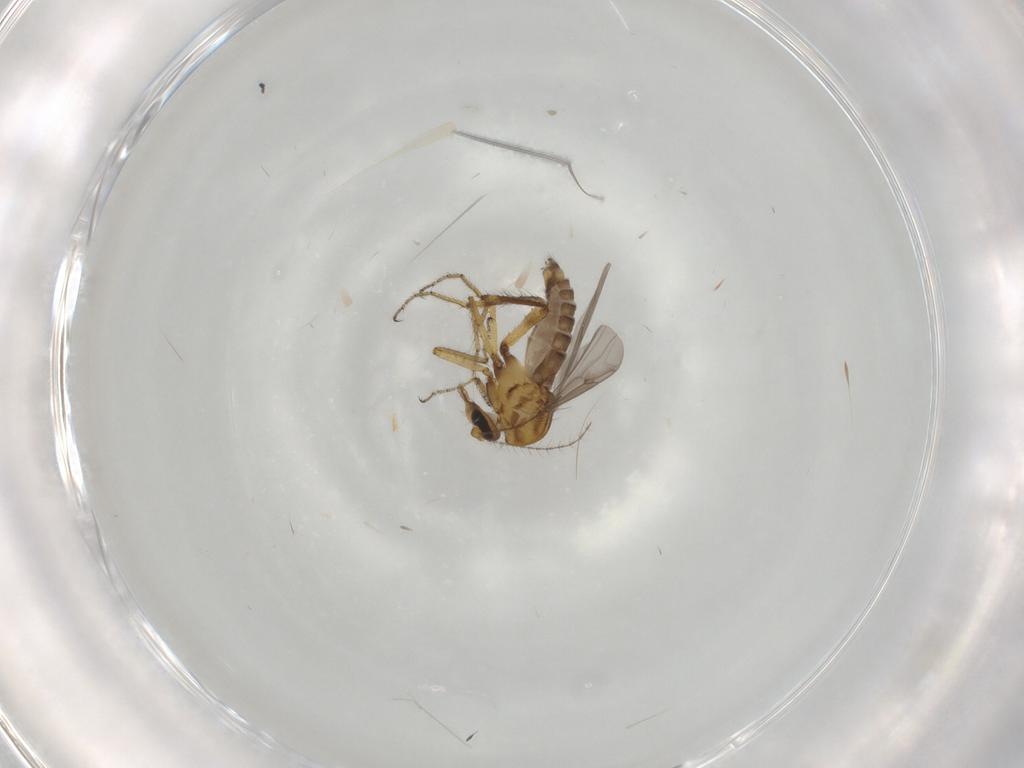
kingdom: Animalia
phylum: Arthropoda
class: Insecta
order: Diptera
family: Ceratopogonidae
